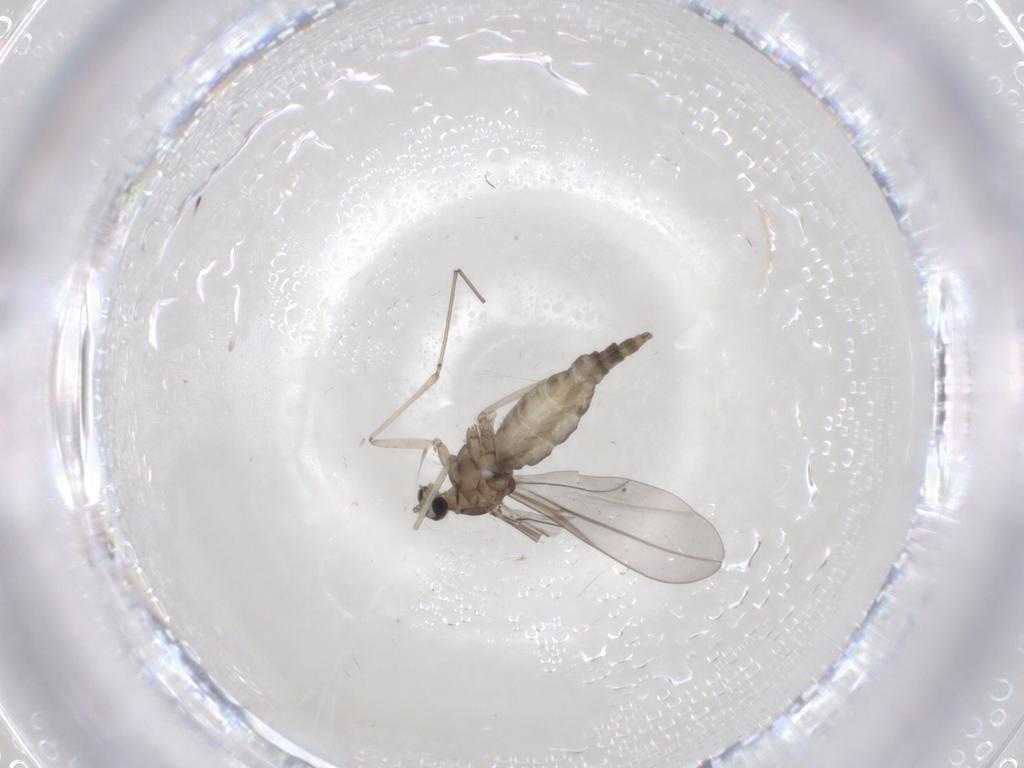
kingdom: Animalia
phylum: Arthropoda
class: Insecta
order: Diptera
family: Cecidomyiidae
